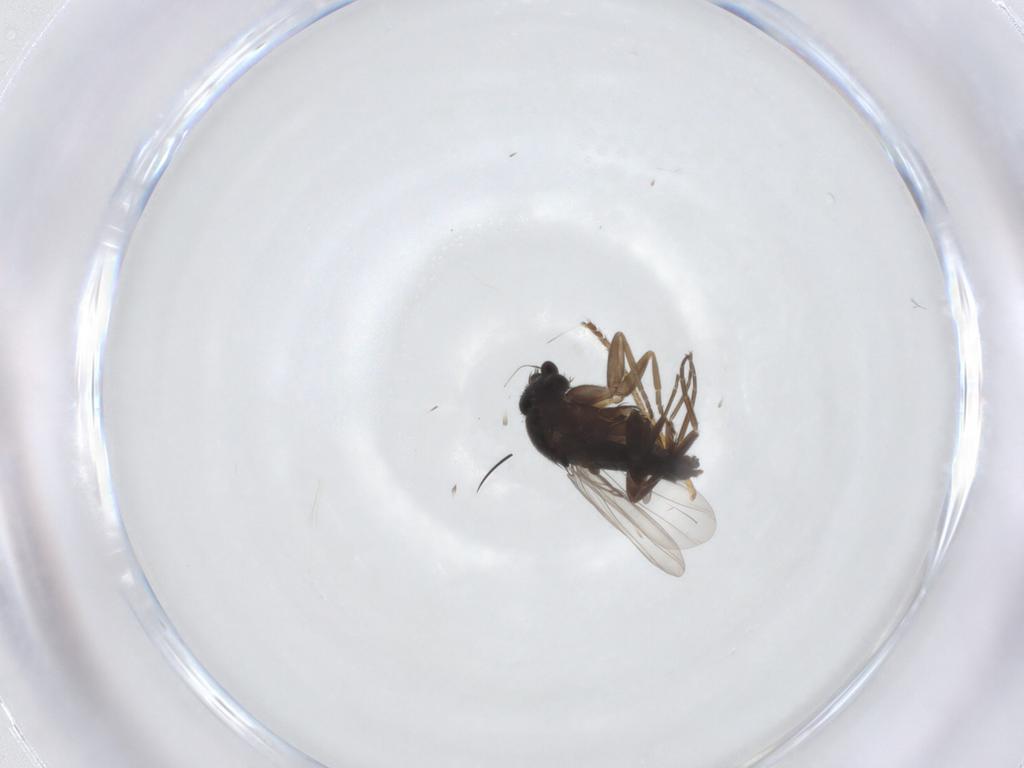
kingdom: Animalia
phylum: Arthropoda
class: Insecta
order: Diptera
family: Drosophilidae
